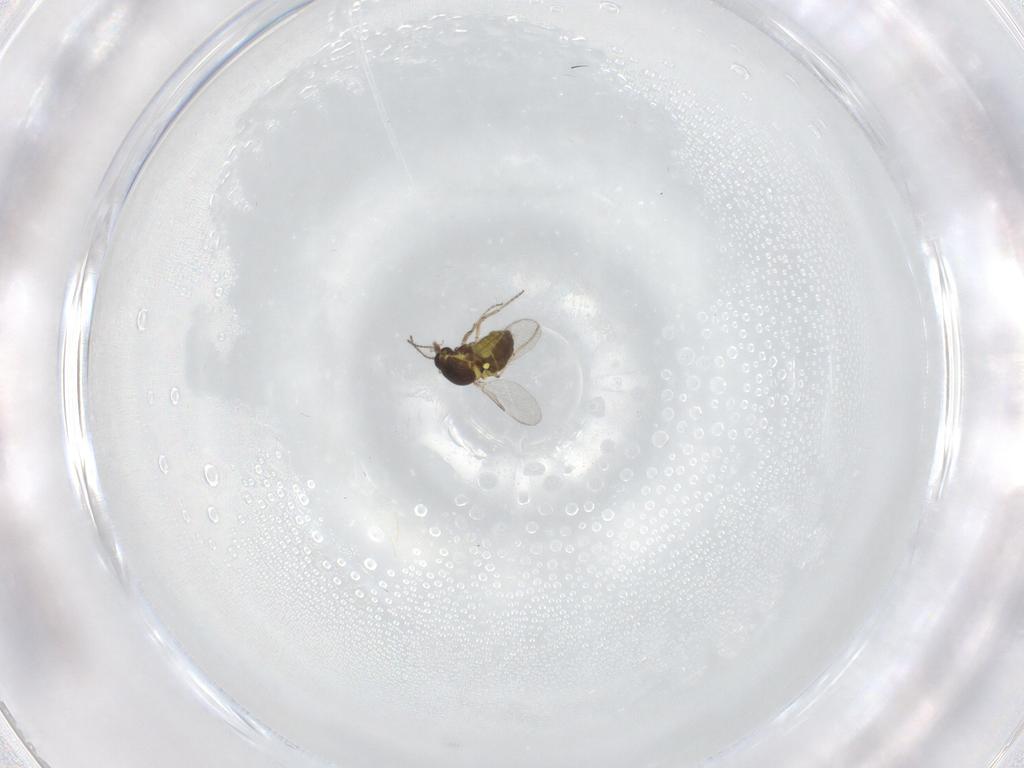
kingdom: Animalia
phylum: Arthropoda
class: Insecta
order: Diptera
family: Ceratopogonidae
